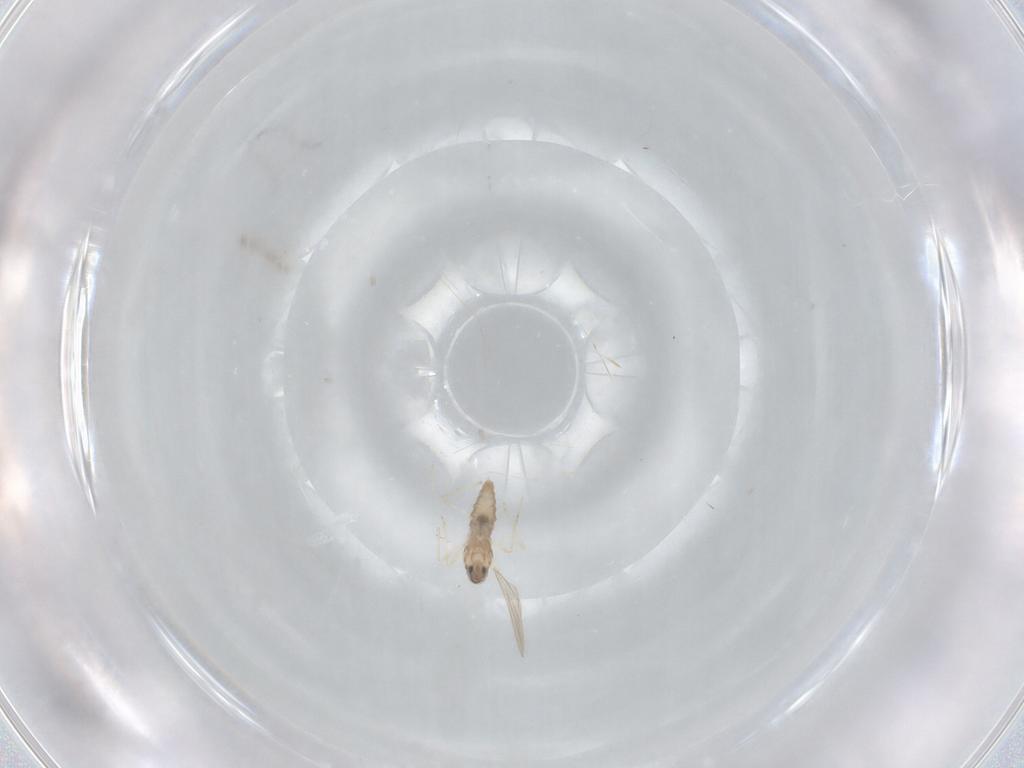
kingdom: Animalia
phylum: Arthropoda
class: Insecta
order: Diptera
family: Cecidomyiidae
